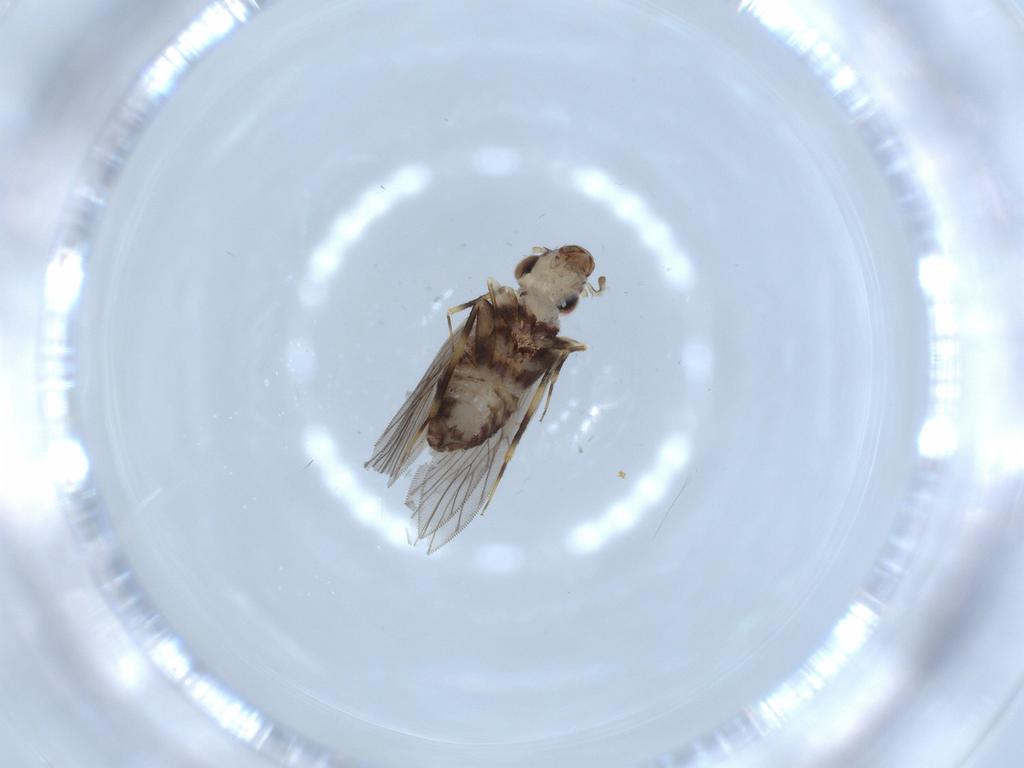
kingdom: Animalia
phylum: Arthropoda
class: Insecta
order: Psocodea
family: Lepidopsocidae
